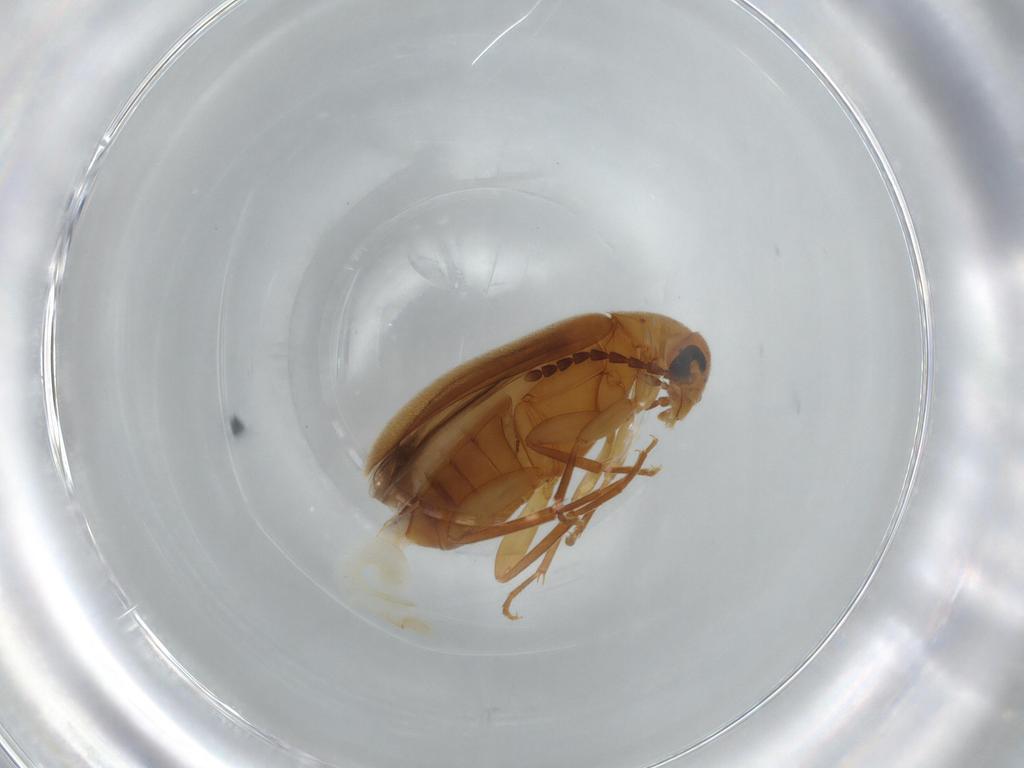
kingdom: Animalia
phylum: Arthropoda
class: Insecta
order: Coleoptera
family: Scraptiidae
